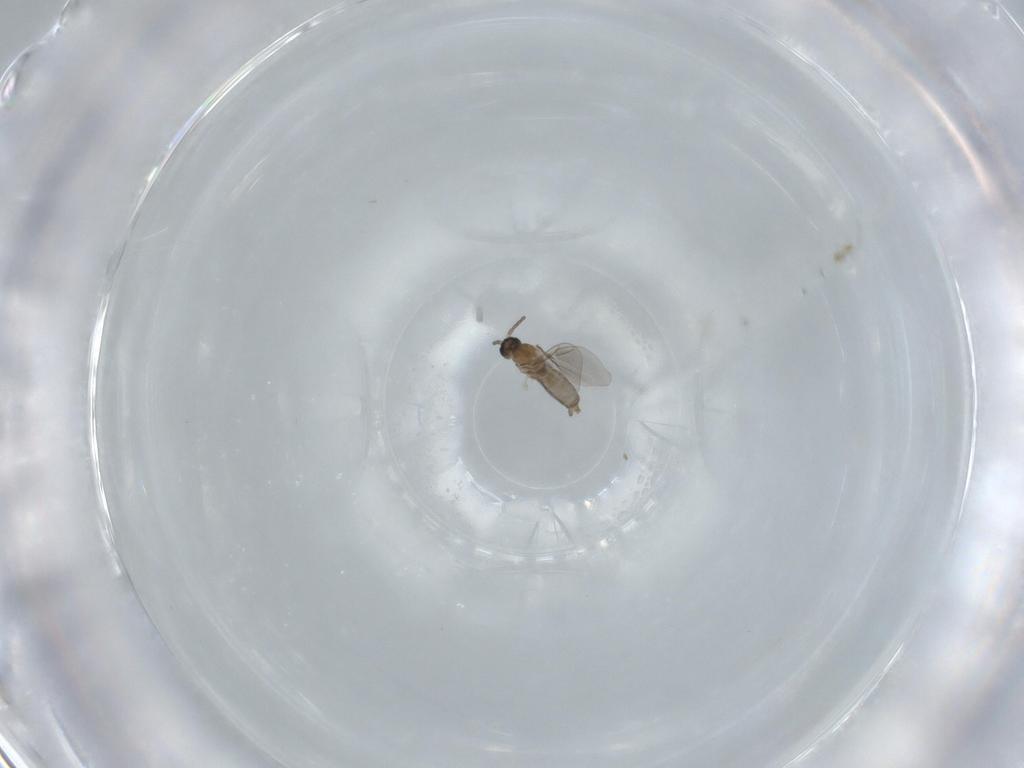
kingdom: Animalia
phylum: Arthropoda
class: Insecta
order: Diptera
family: Cecidomyiidae
